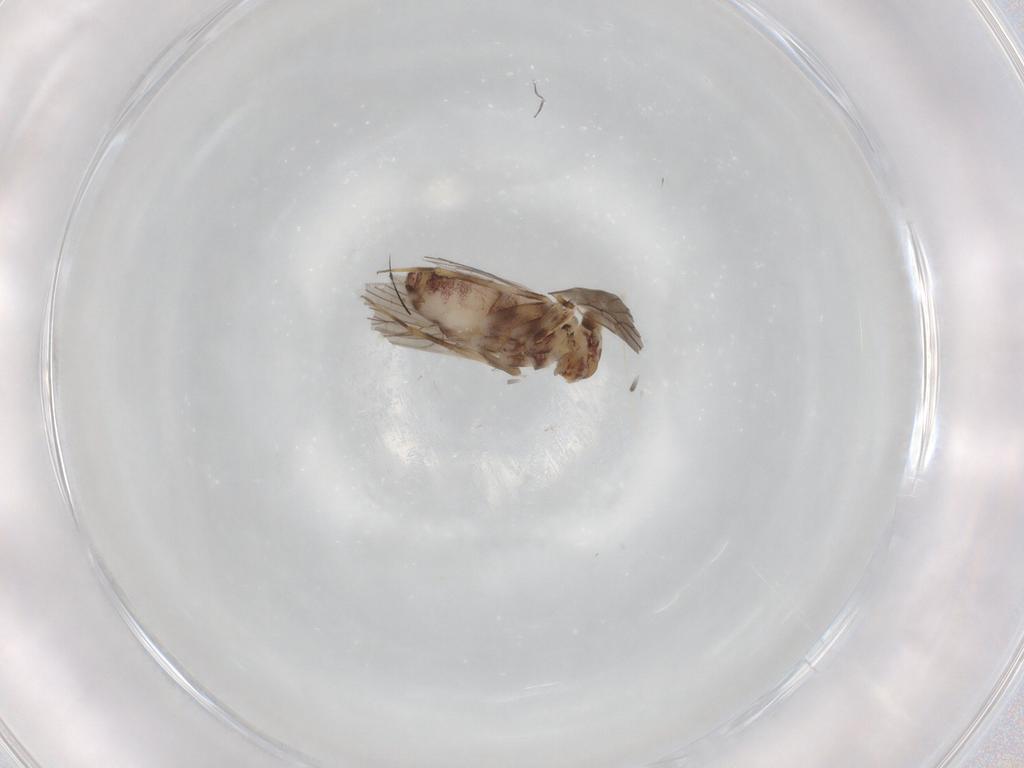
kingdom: Animalia
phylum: Arthropoda
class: Insecta
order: Psocodea
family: Lepidopsocidae
